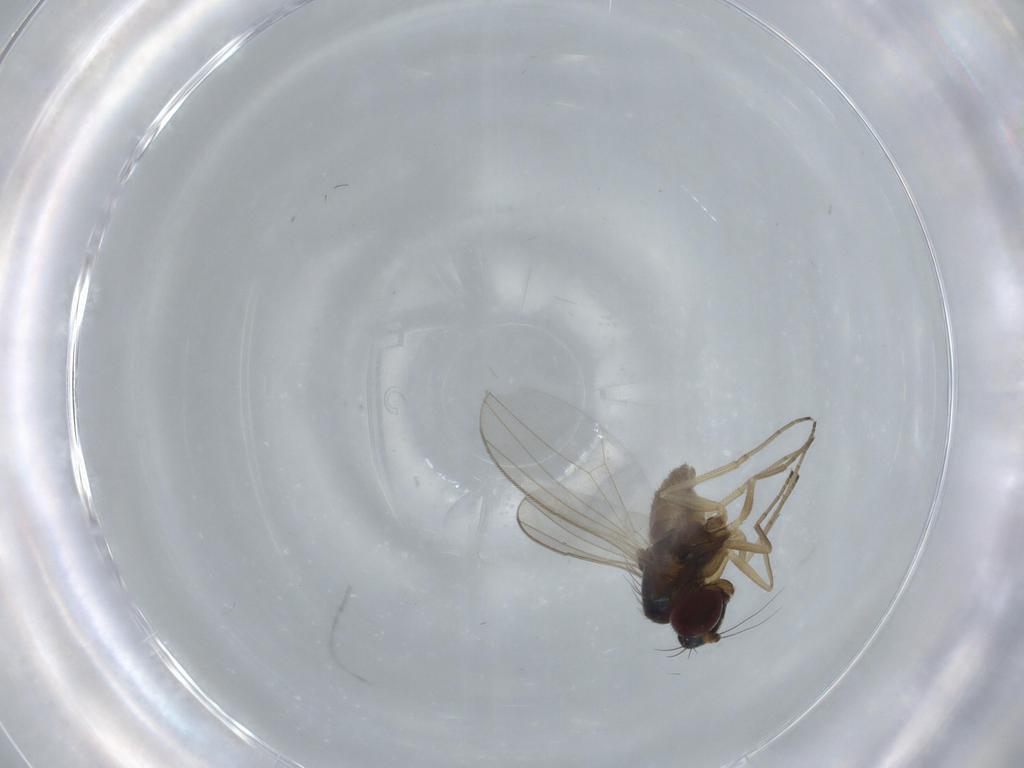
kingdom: Animalia
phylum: Arthropoda
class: Insecta
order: Diptera
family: Dolichopodidae
